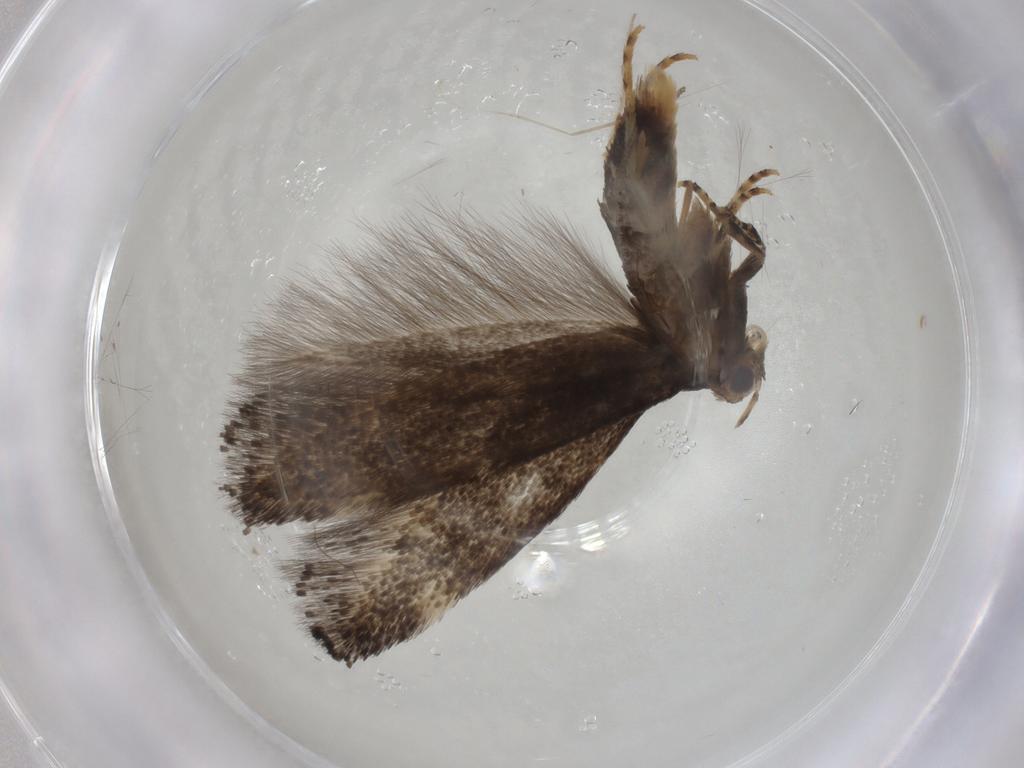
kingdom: Animalia
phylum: Arthropoda
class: Insecta
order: Lepidoptera
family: Elachistidae
